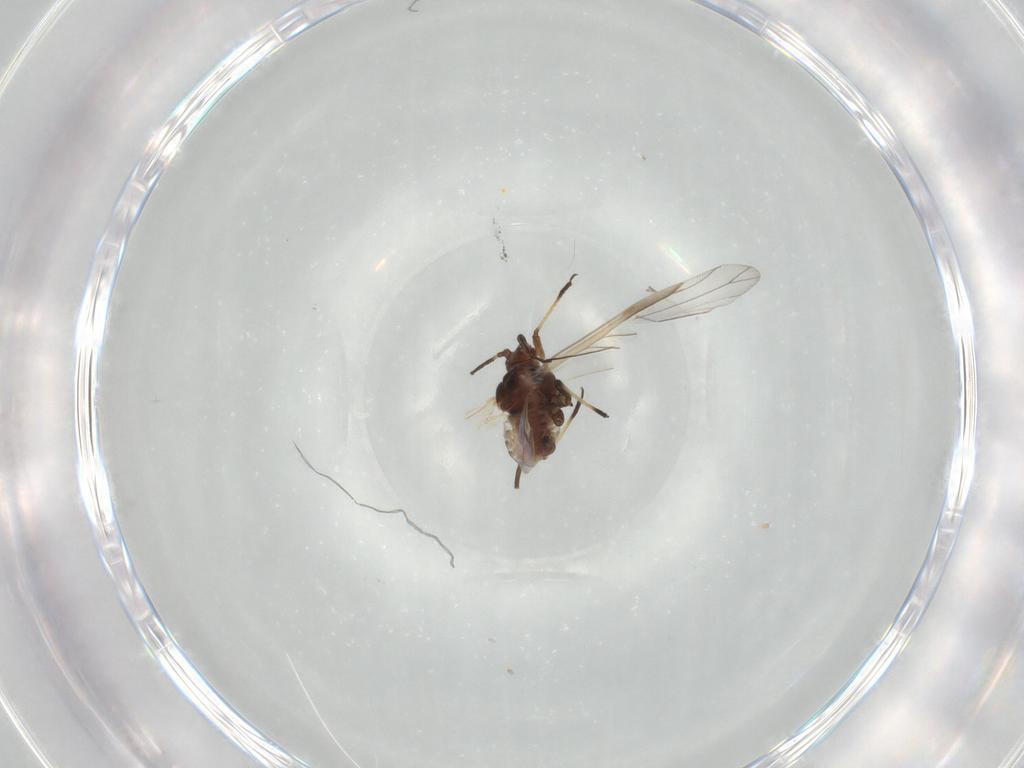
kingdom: Animalia
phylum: Arthropoda
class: Insecta
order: Hemiptera
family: Aphididae
